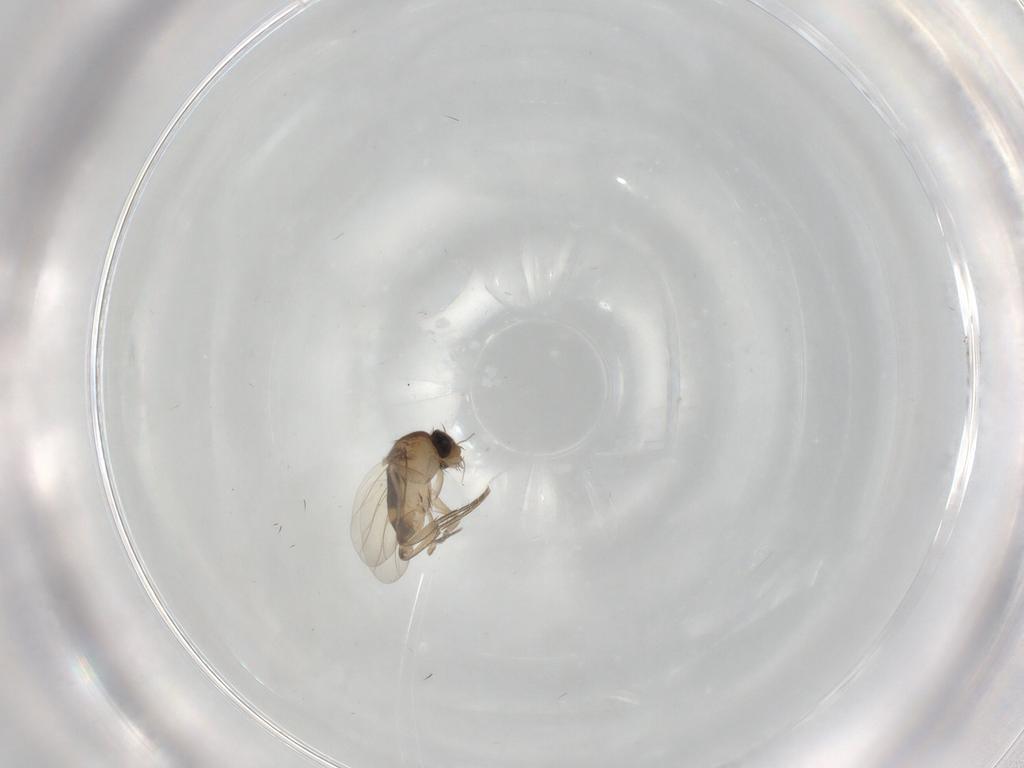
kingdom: Animalia
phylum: Arthropoda
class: Insecta
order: Diptera
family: Phoridae
